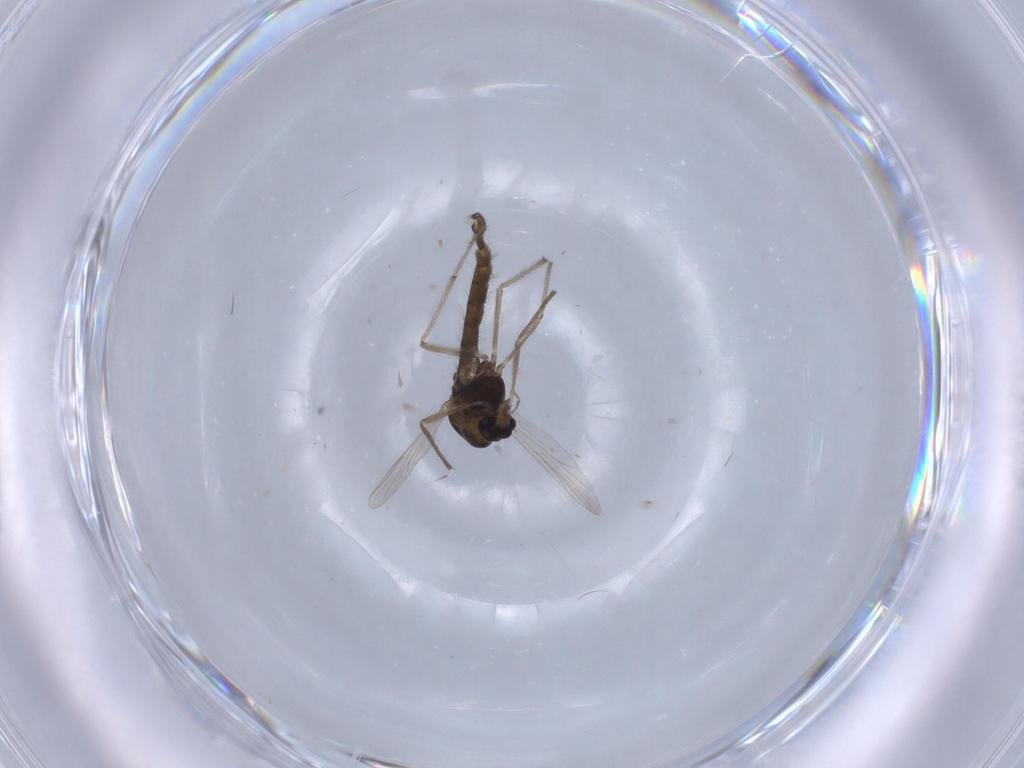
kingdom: Animalia
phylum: Arthropoda
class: Insecta
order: Diptera
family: Chironomidae
